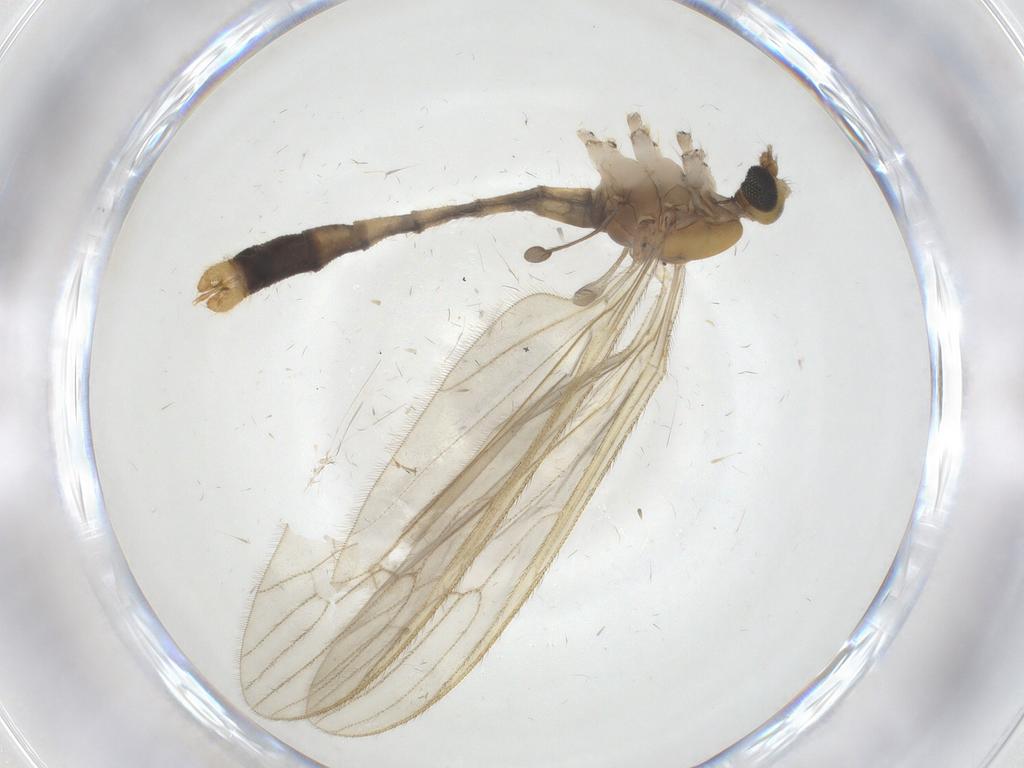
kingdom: Animalia
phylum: Arthropoda
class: Insecta
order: Diptera
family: Cecidomyiidae
